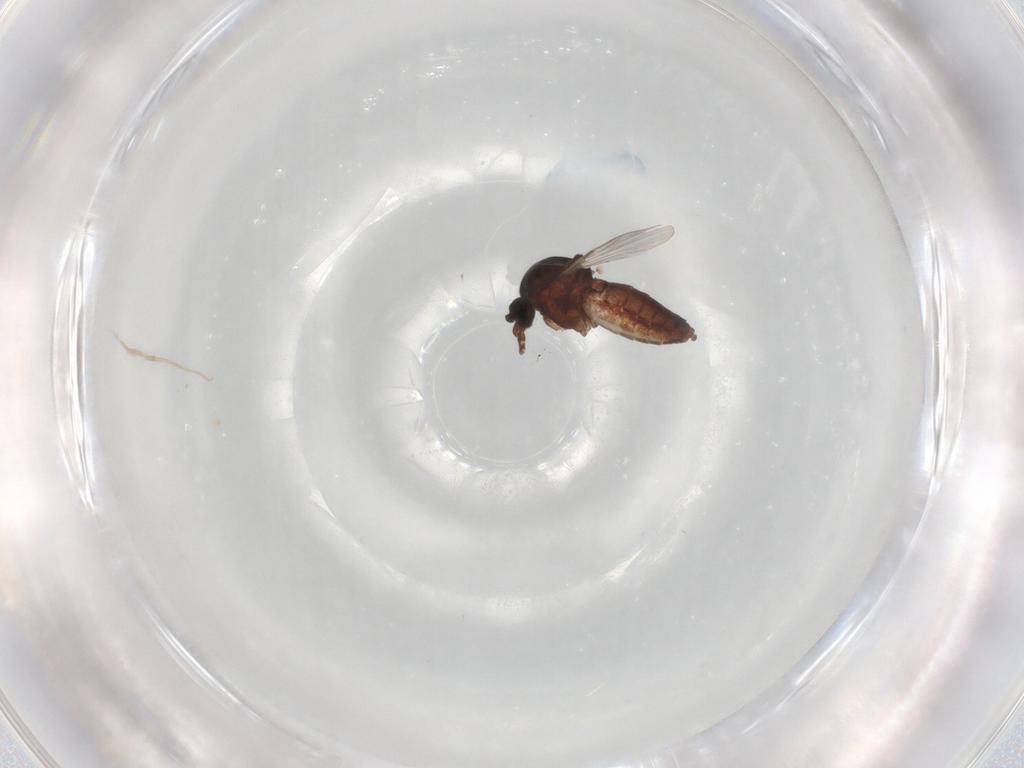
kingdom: Animalia
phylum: Arthropoda
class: Insecta
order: Diptera
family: Ceratopogonidae
